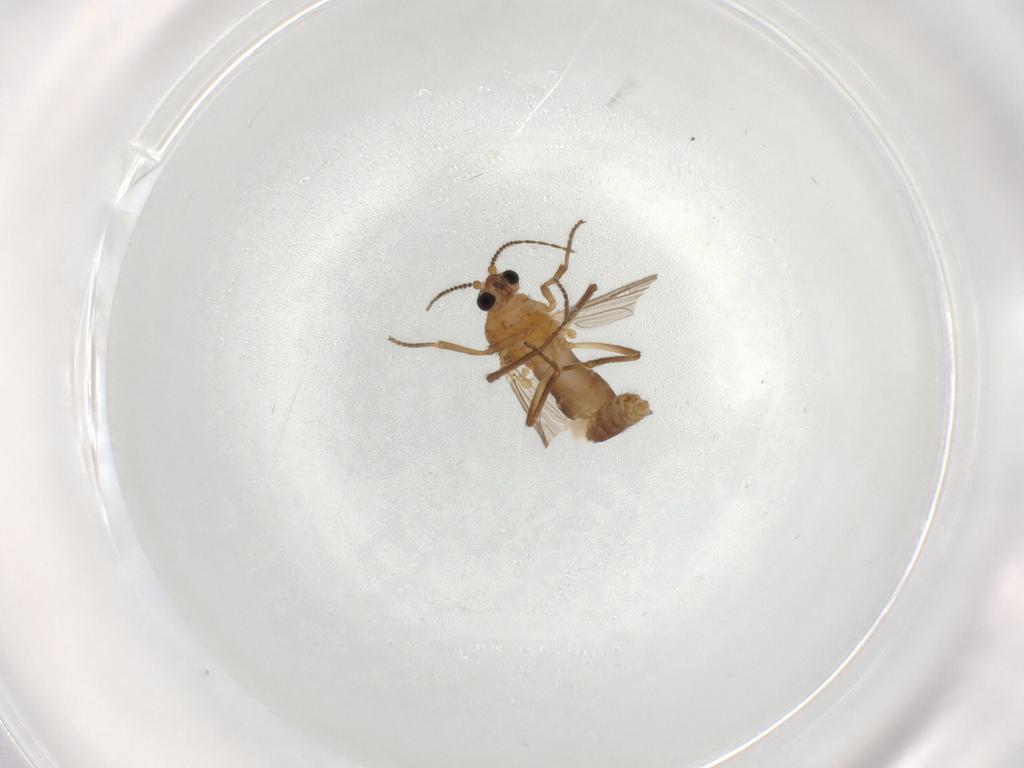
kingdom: Animalia
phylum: Arthropoda
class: Insecta
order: Diptera
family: Ceratopogonidae
